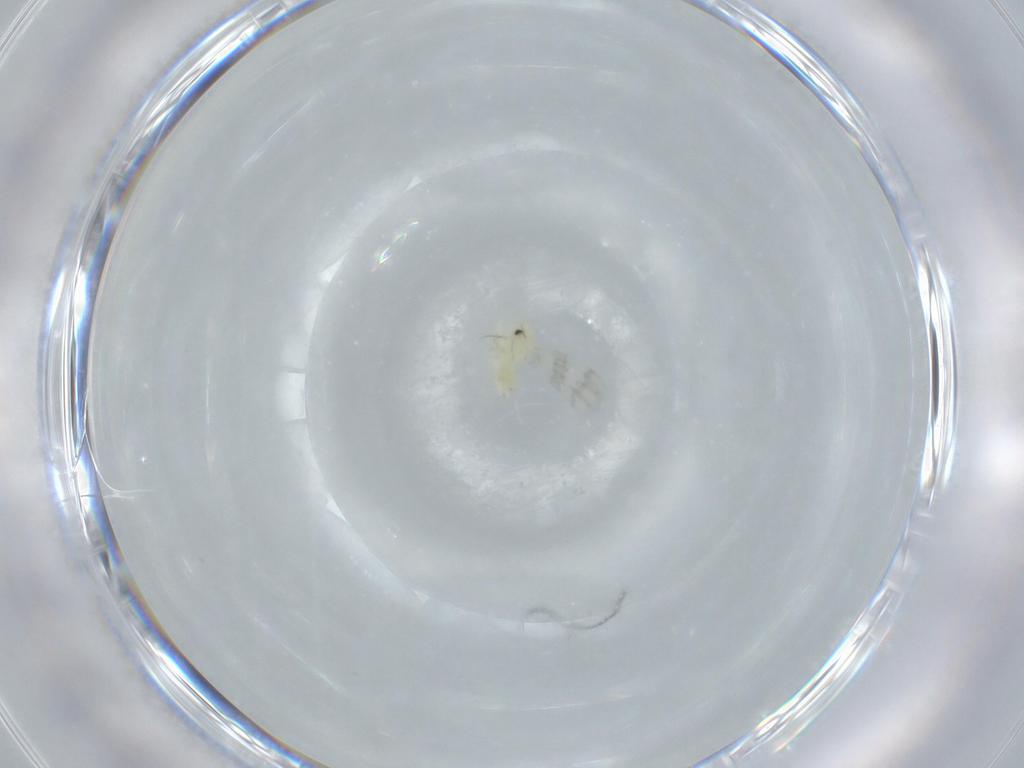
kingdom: Animalia
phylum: Arthropoda
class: Insecta
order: Hemiptera
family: Aleyrodidae
